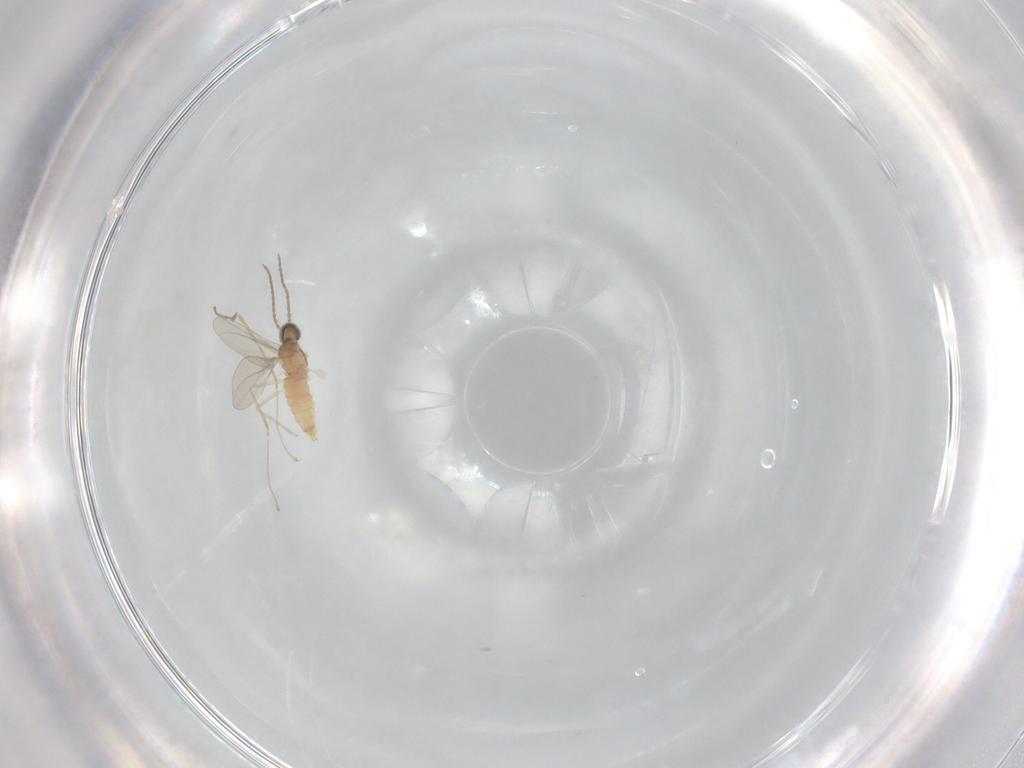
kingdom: Animalia
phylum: Arthropoda
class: Insecta
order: Diptera
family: Cecidomyiidae
